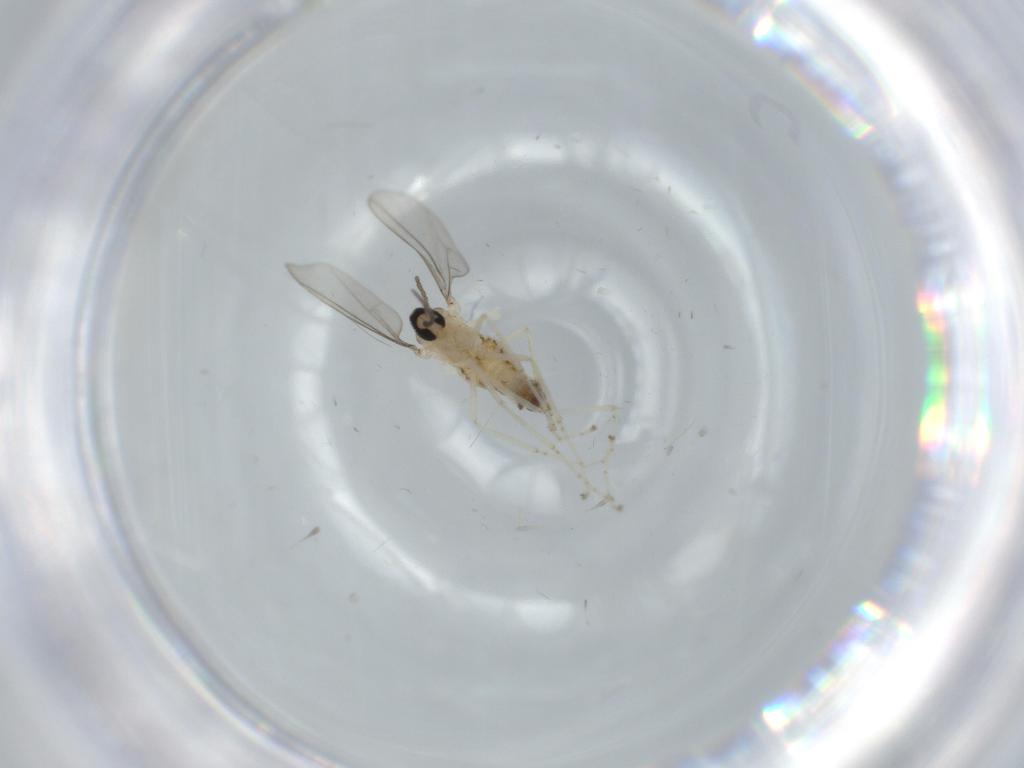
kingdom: Animalia
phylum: Arthropoda
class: Insecta
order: Diptera
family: Cecidomyiidae
